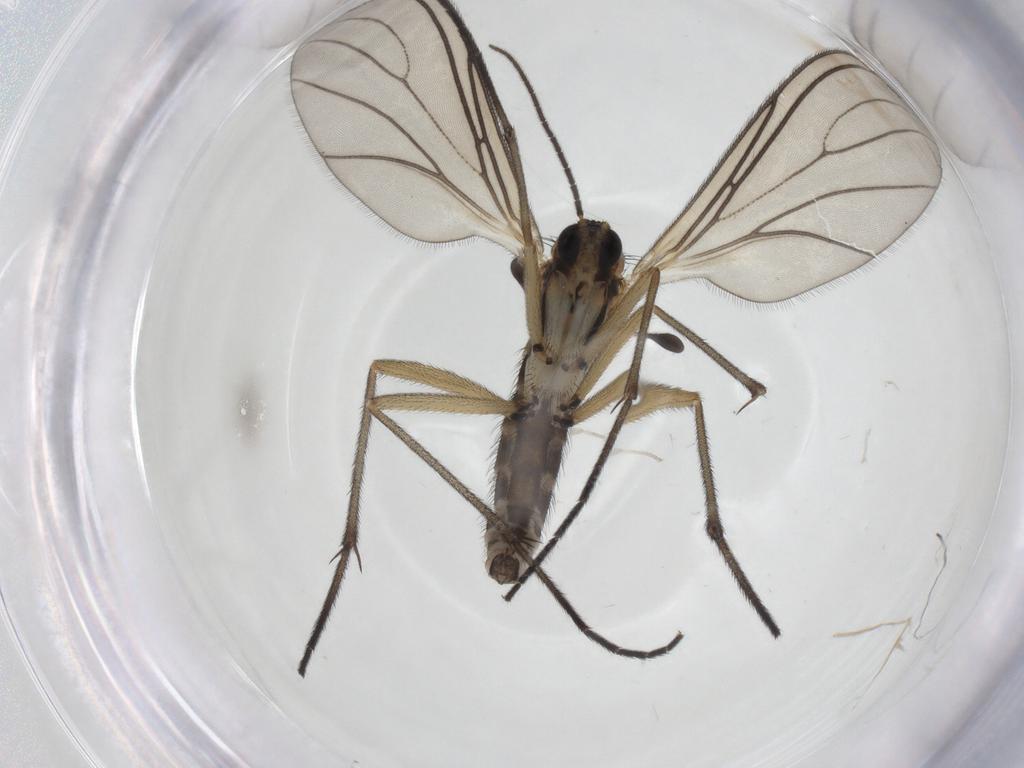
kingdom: Animalia
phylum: Arthropoda
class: Insecta
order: Diptera
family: Sciaridae
